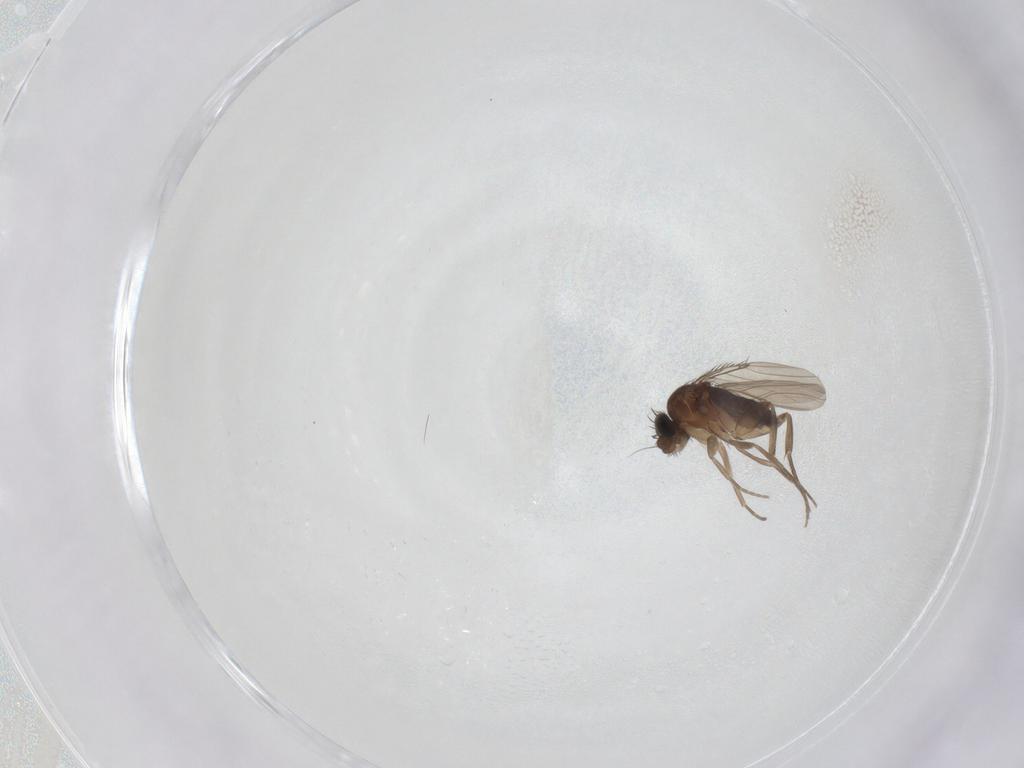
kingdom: Animalia
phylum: Arthropoda
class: Insecta
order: Diptera
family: Phoridae
